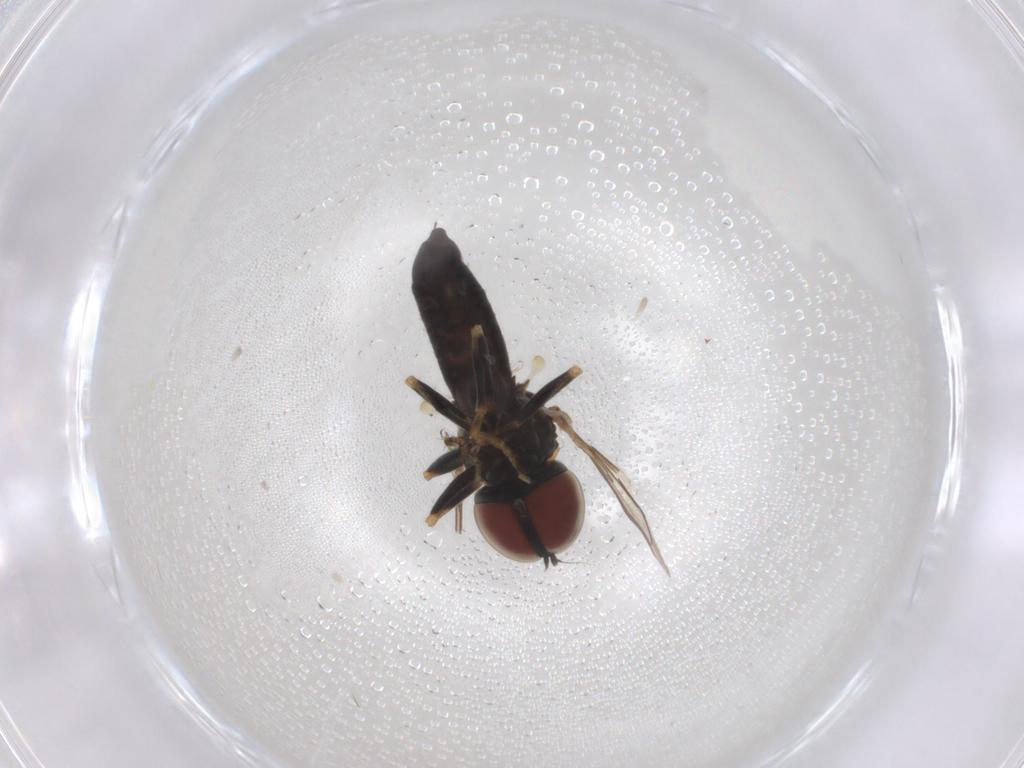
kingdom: Animalia
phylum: Arthropoda
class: Insecta
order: Diptera
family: Pipunculidae
